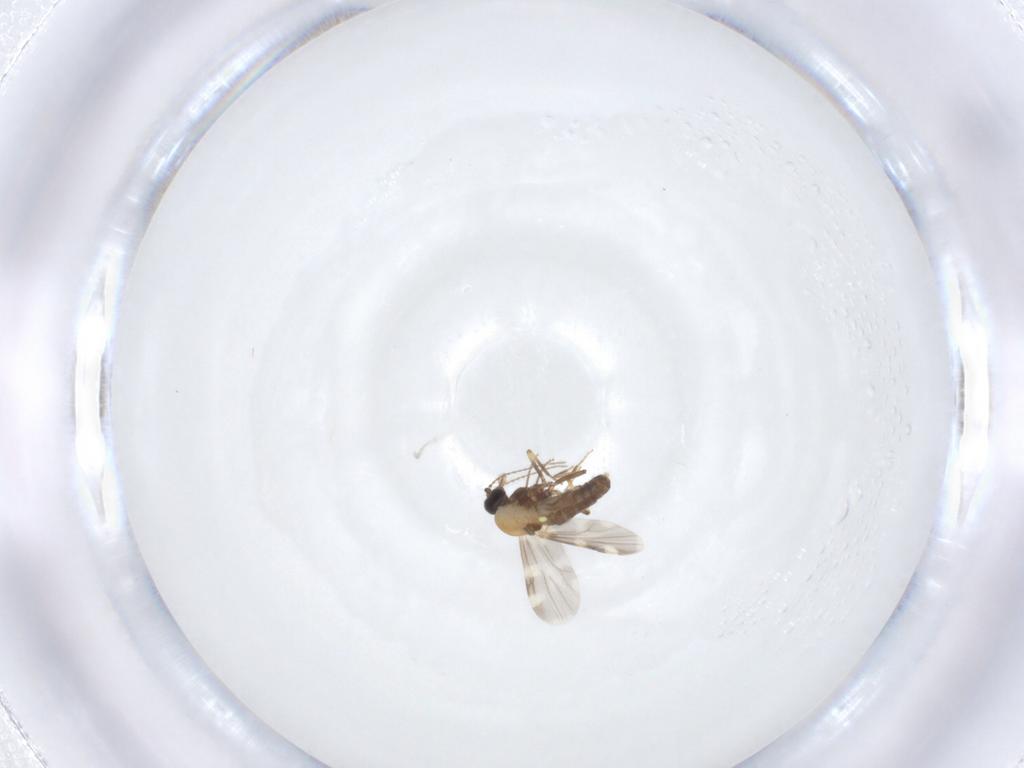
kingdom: Animalia
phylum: Arthropoda
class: Insecta
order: Diptera
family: Ceratopogonidae
